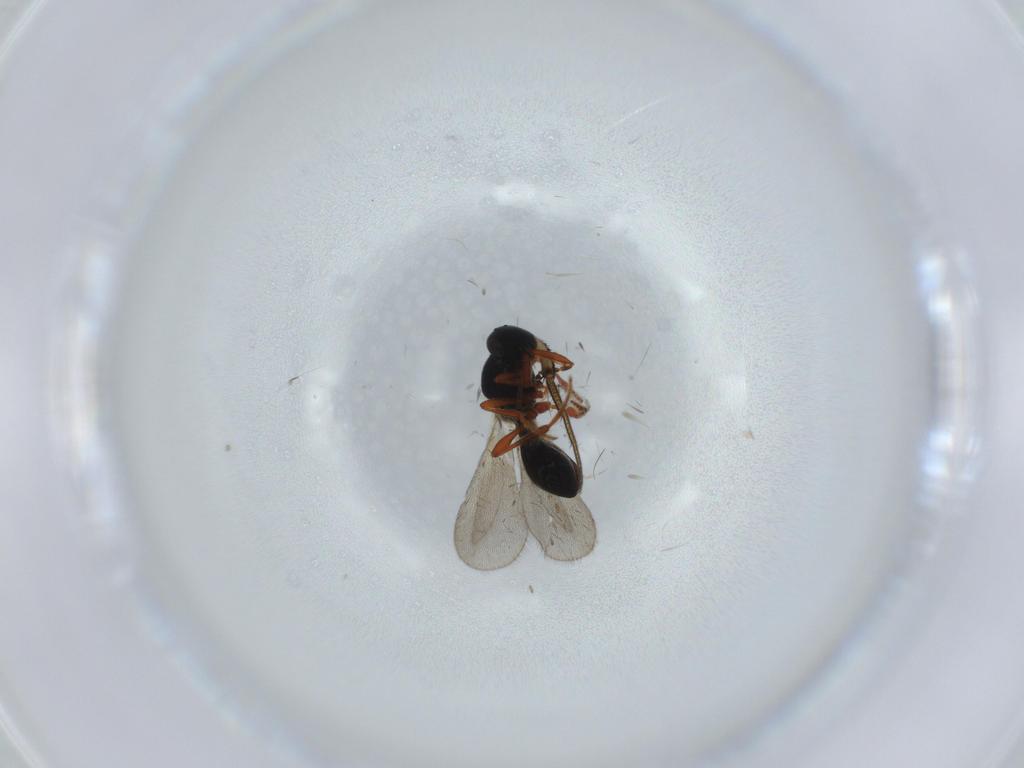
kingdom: Animalia
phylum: Arthropoda
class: Insecta
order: Hymenoptera
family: Platygastridae
